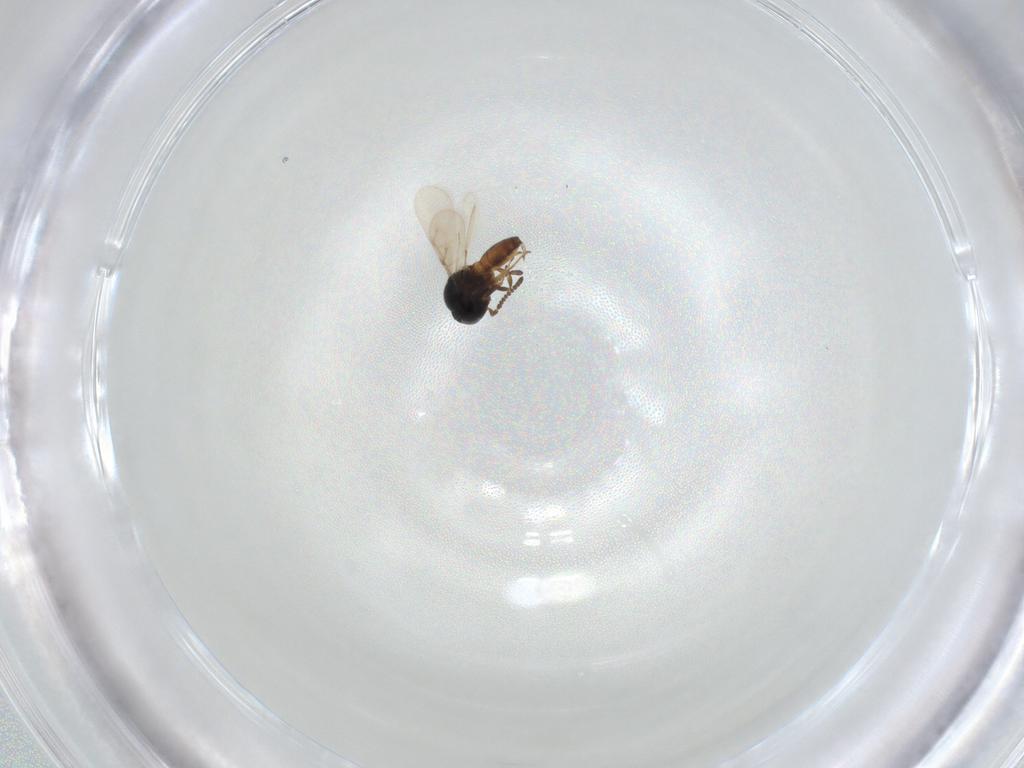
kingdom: Animalia
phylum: Arthropoda
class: Insecta
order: Hymenoptera
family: Scelionidae
